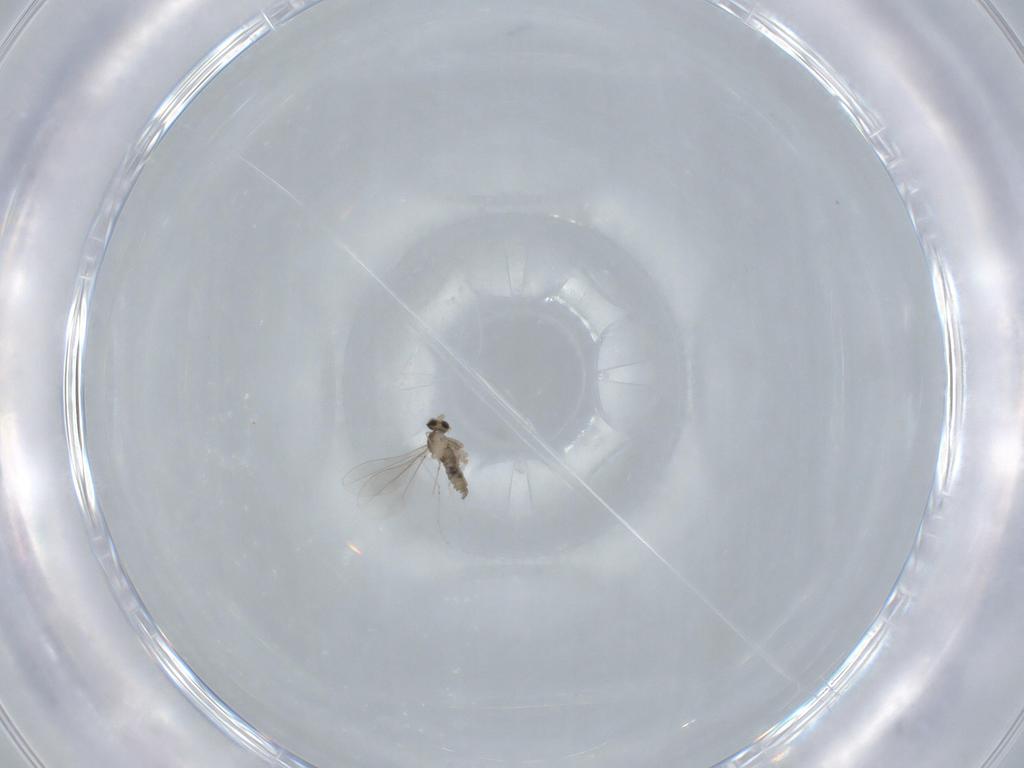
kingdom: Animalia
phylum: Arthropoda
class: Insecta
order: Diptera
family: Cecidomyiidae
